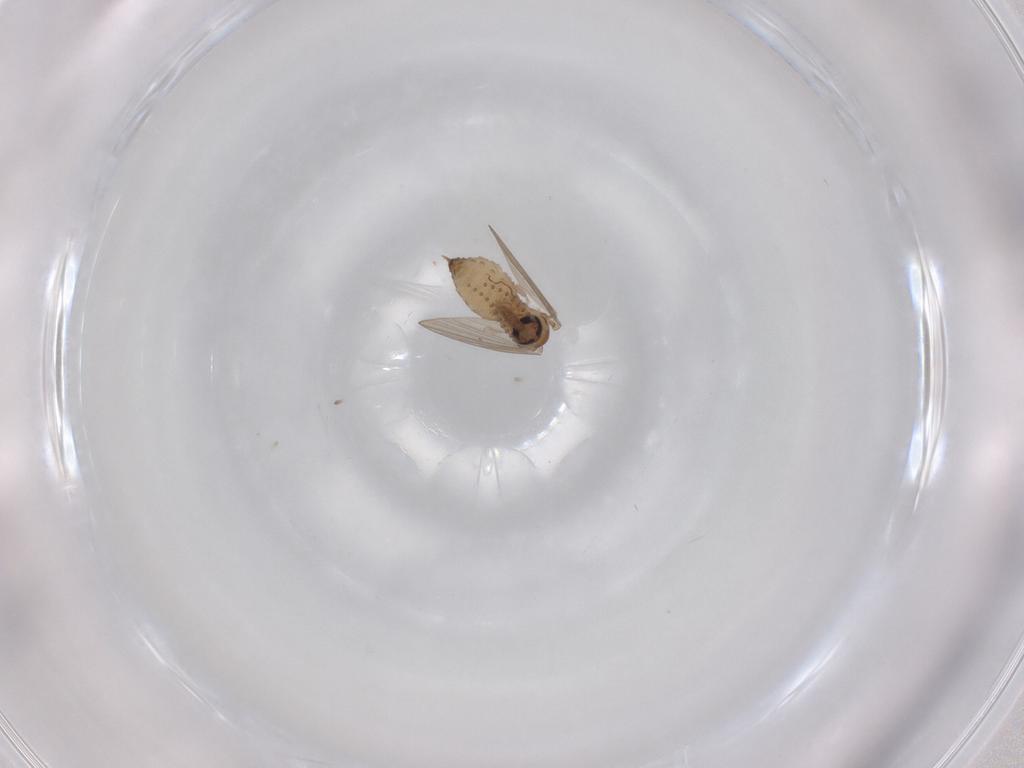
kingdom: Animalia
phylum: Arthropoda
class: Insecta
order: Diptera
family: Psychodidae
